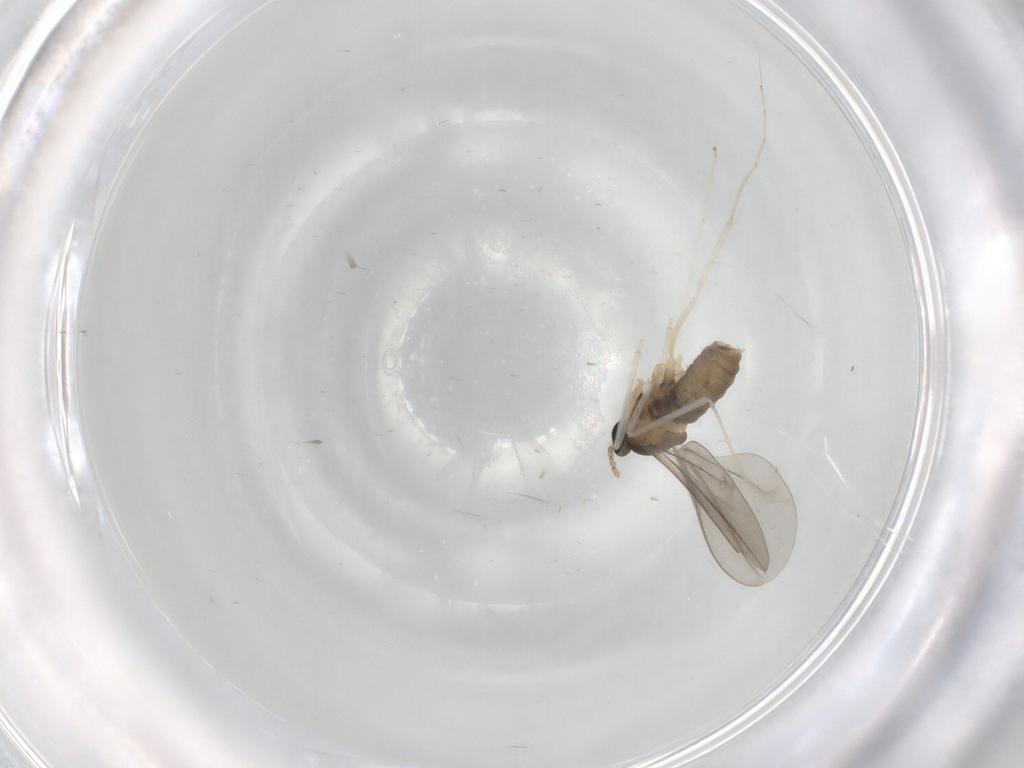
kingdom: Animalia
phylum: Arthropoda
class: Insecta
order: Diptera
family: Cecidomyiidae
